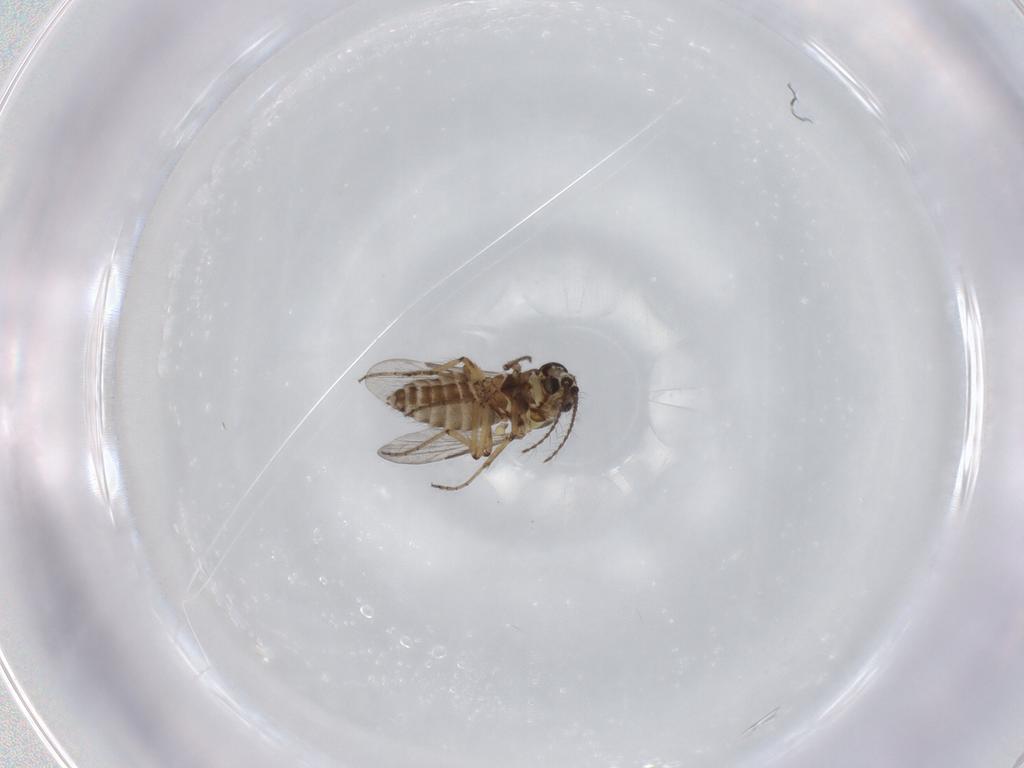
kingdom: Animalia
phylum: Arthropoda
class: Insecta
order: Diptera
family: Ceratopogonidae
